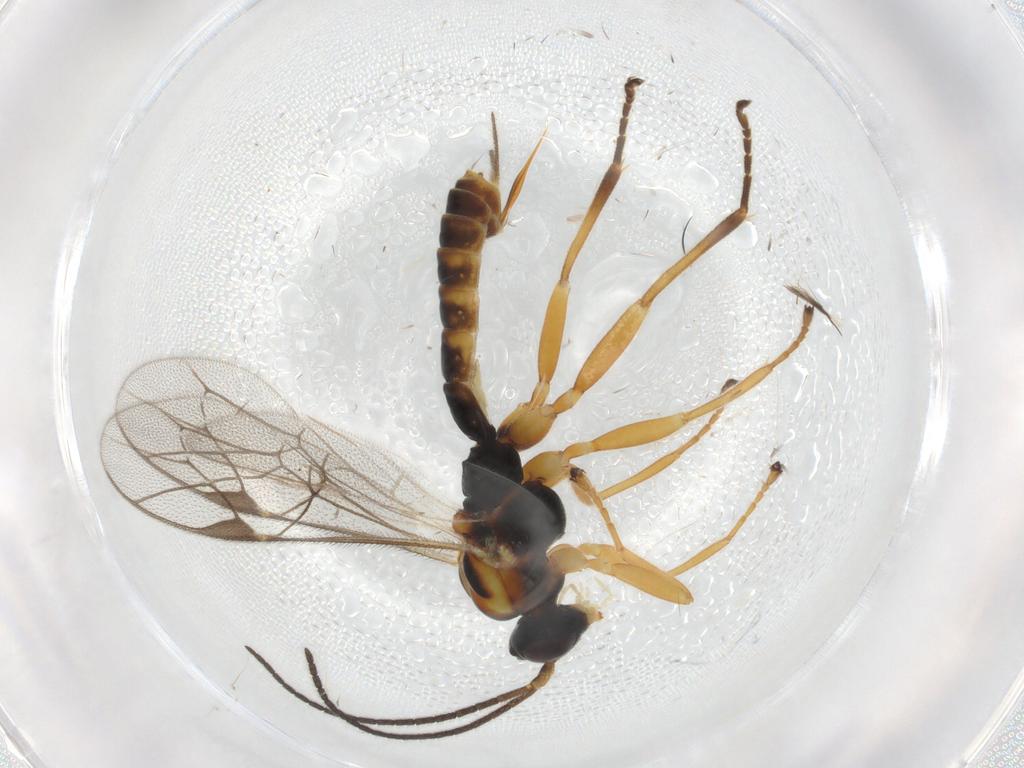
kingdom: Animalia
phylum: Arthropoda
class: Insecta
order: Hymenoptera
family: Ichneumonidae
